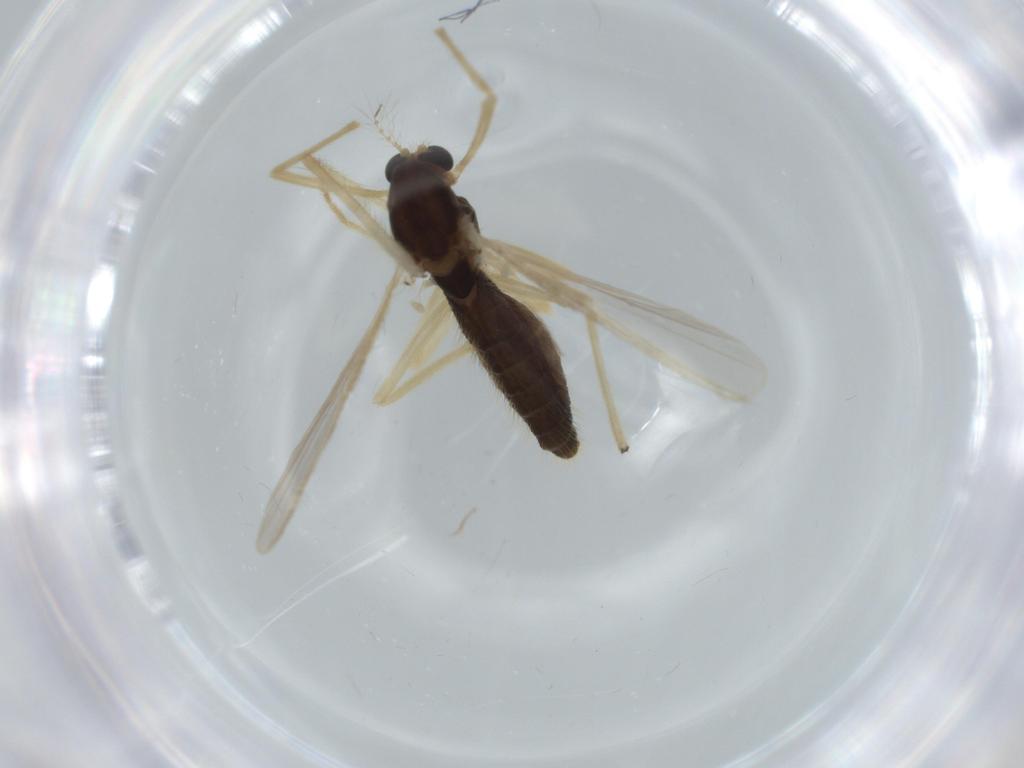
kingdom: Animalia
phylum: Arthropoda
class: Insecta
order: Diptera
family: Chironomidae
